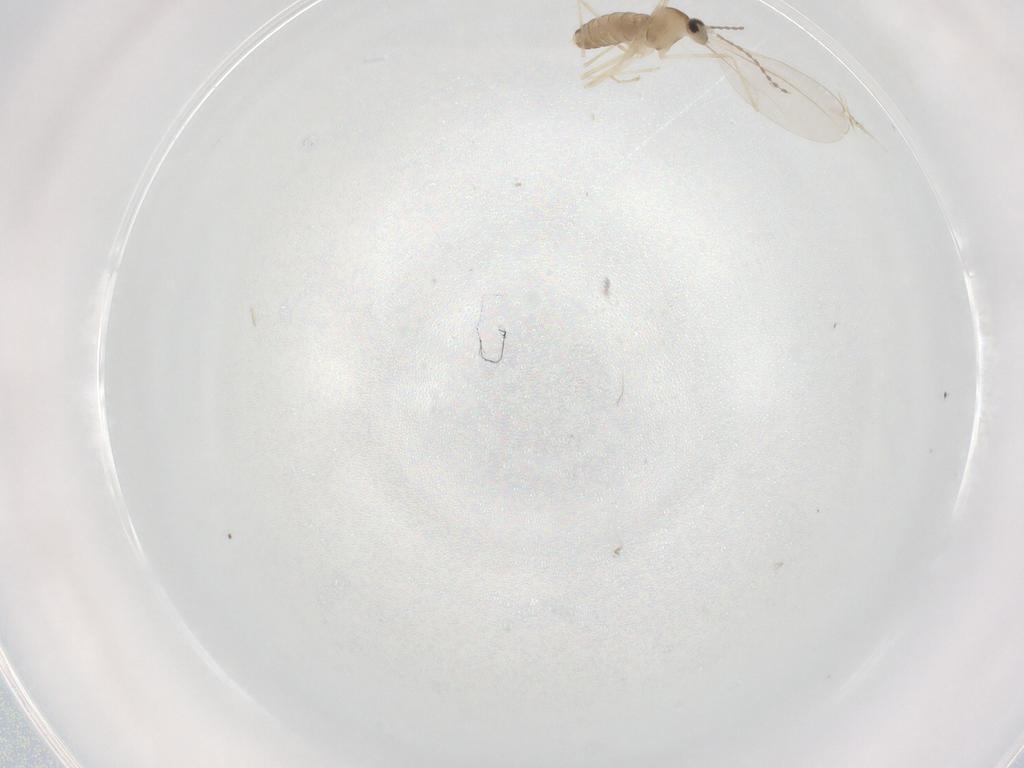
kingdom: Animalia
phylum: Arthropoda
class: Insecta
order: Diptera
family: Cecidomyiidae
